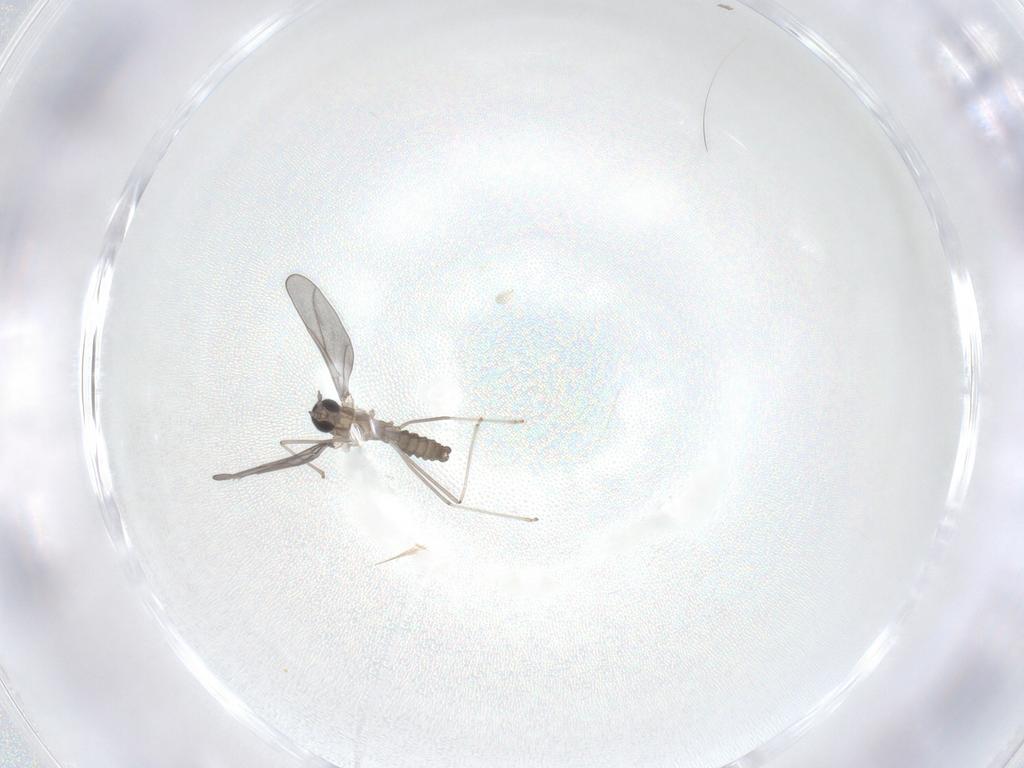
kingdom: Animalia
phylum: Arthropoda
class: Insecta
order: Diptera
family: Cecidomyiidae
